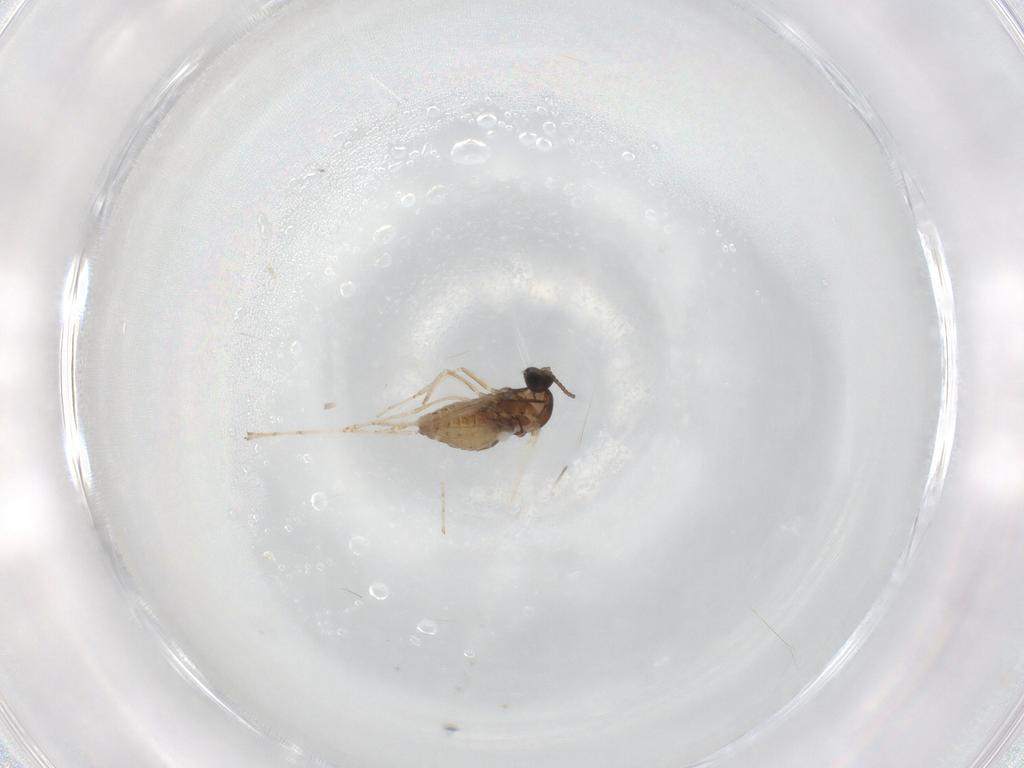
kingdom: Animalia
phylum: Arthropoda
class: Insecta
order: Diptera
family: Cecidomyiidae
